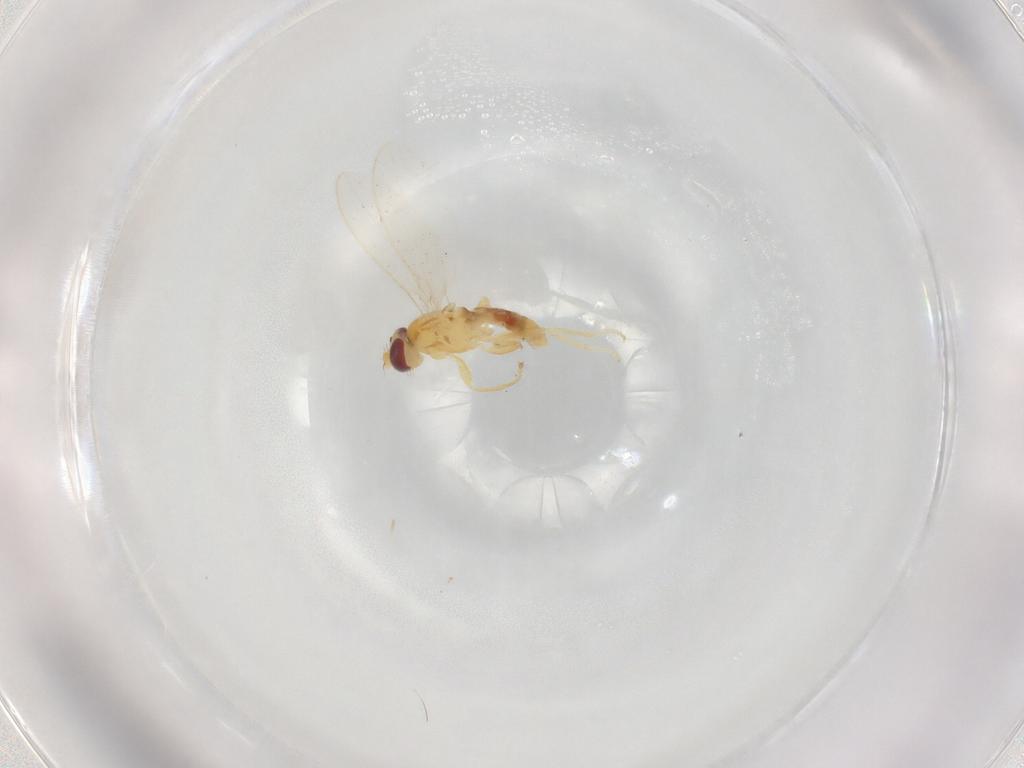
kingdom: Animalia
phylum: Arthropoda
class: Insecta
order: Diptera
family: Periscelididae
